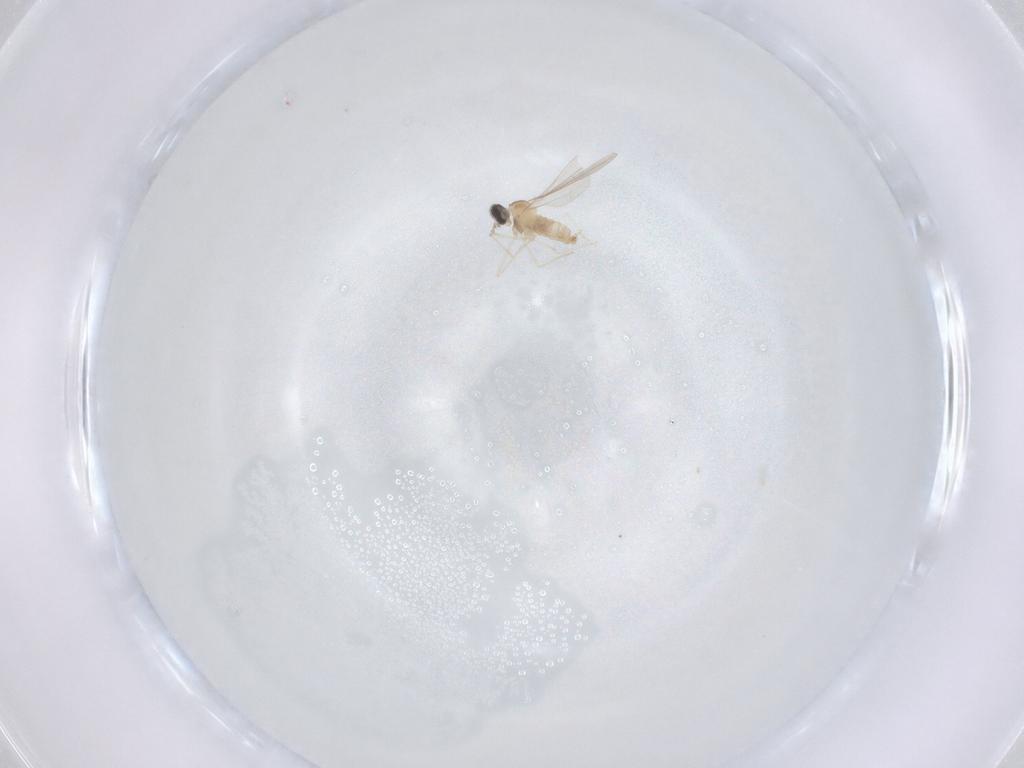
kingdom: Animalia
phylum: Arthropoda
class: Insecta
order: Diptera
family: Cecidomyiidae
